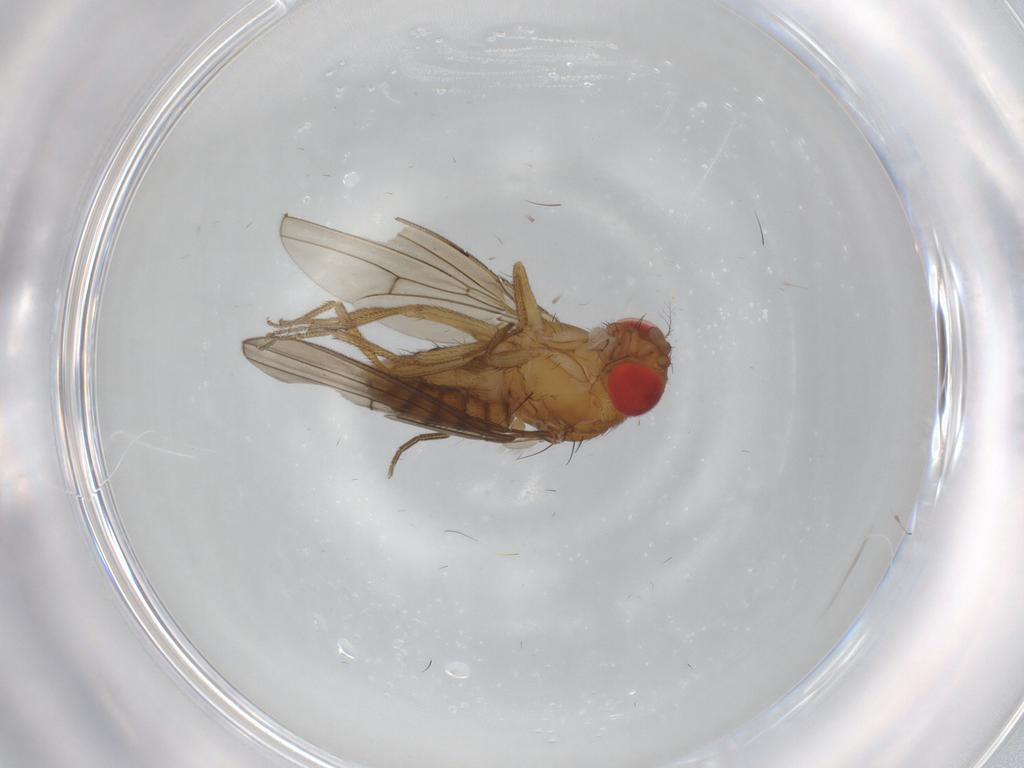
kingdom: Animalia
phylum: Arthropoda
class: Insecta
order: Diptera
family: Drosophilidae
